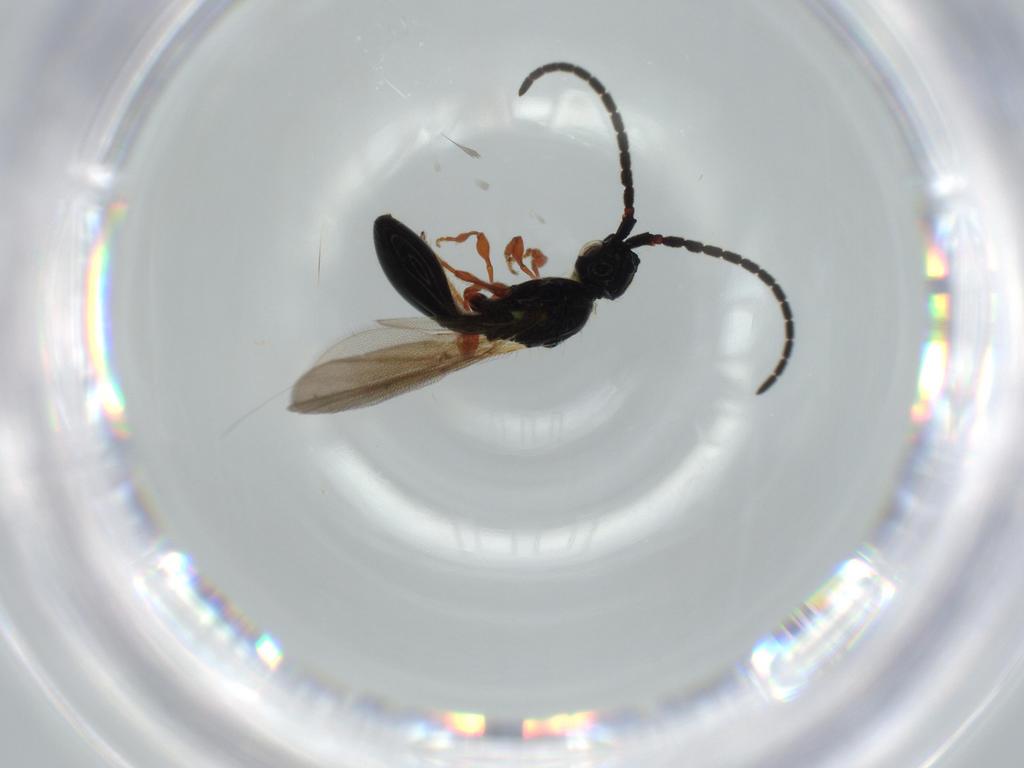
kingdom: Animalia
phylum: Arthropoda
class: Insecta
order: Hymenoptera
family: Diapriidae
